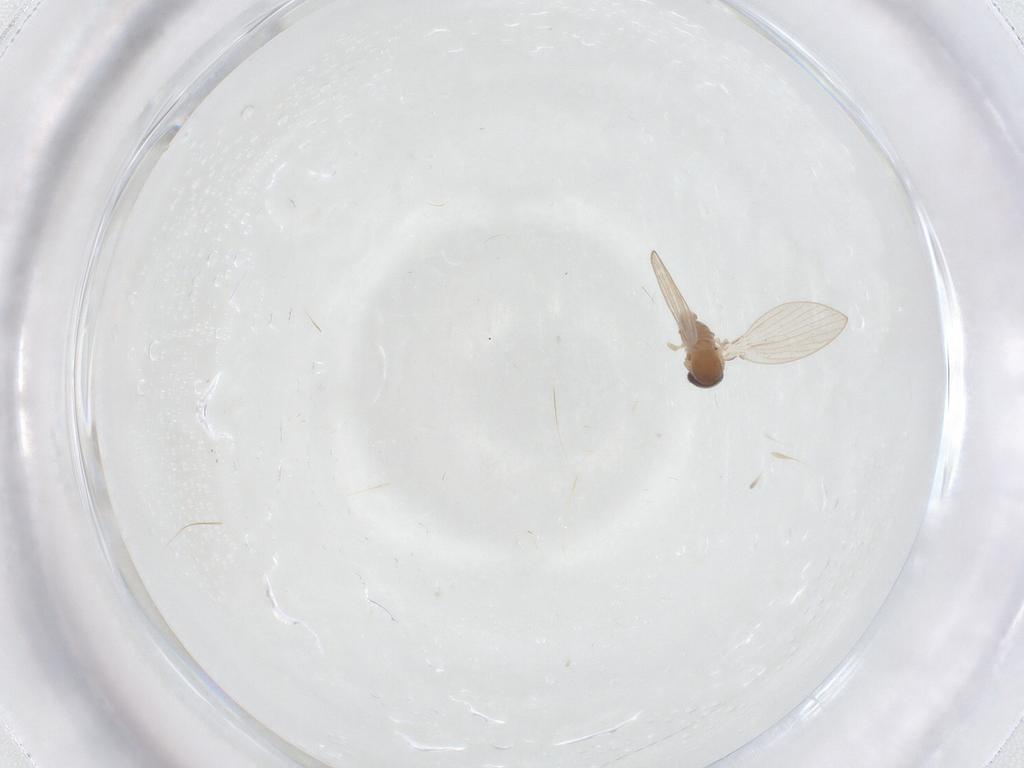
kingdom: Animalia
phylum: Arthropoda
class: Insecta
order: Diptera
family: Psychodidae
